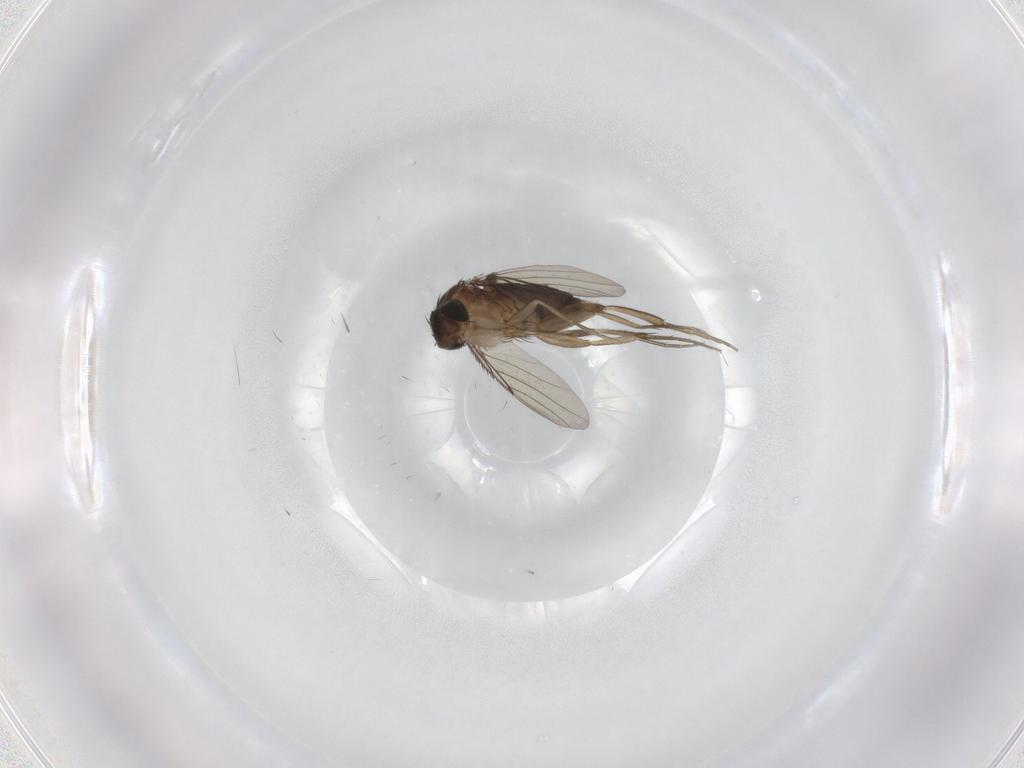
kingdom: Animalia
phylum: Arthropoda
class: Insecta
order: Diptera
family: Phoridae
